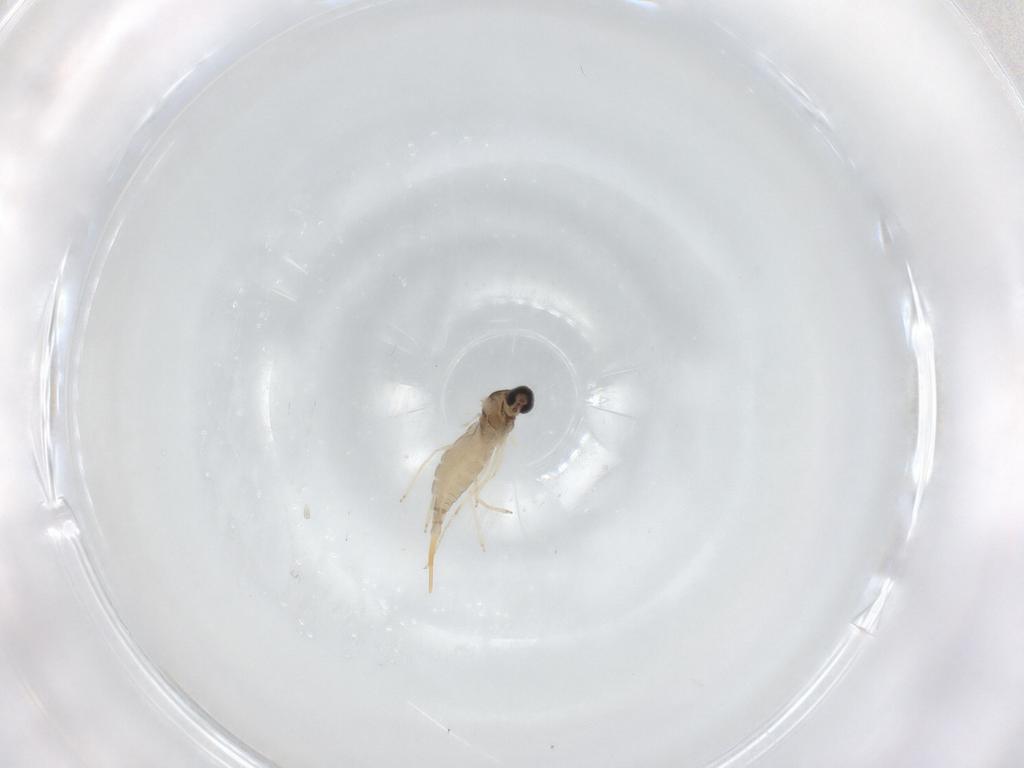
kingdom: Animalia
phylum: Arthropoda
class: Insecta
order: Diptera
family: Cecidomyiidae
